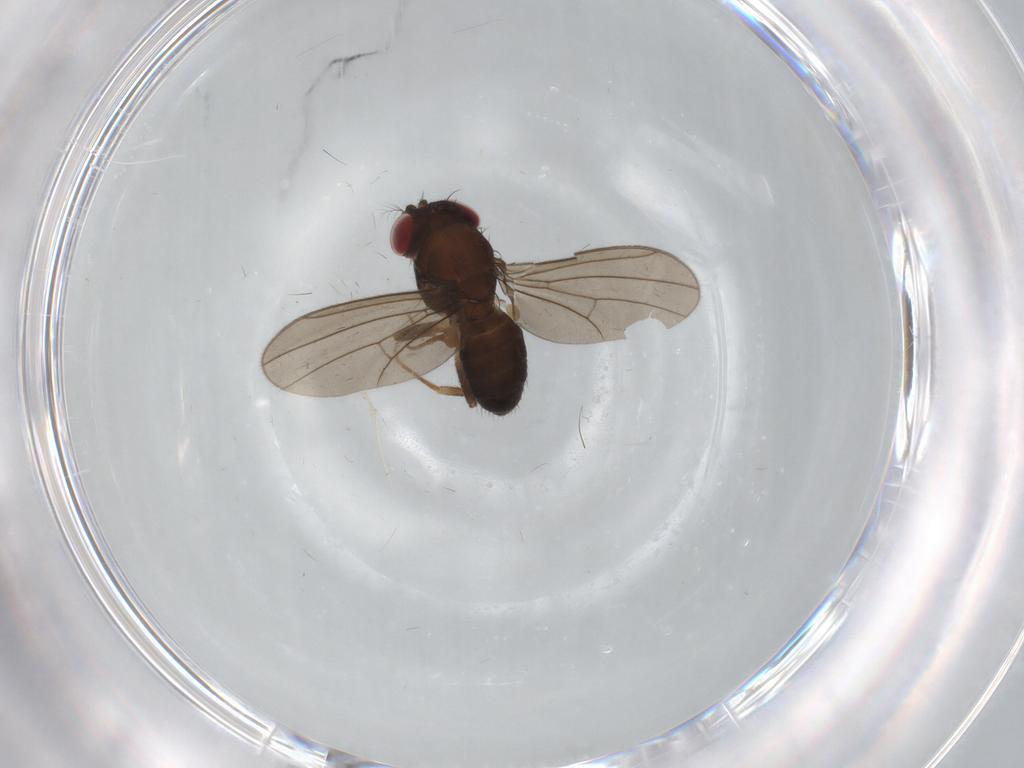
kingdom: Animalia
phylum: Arthropoda
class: Insecta
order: Diptera
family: Drosophilidae
